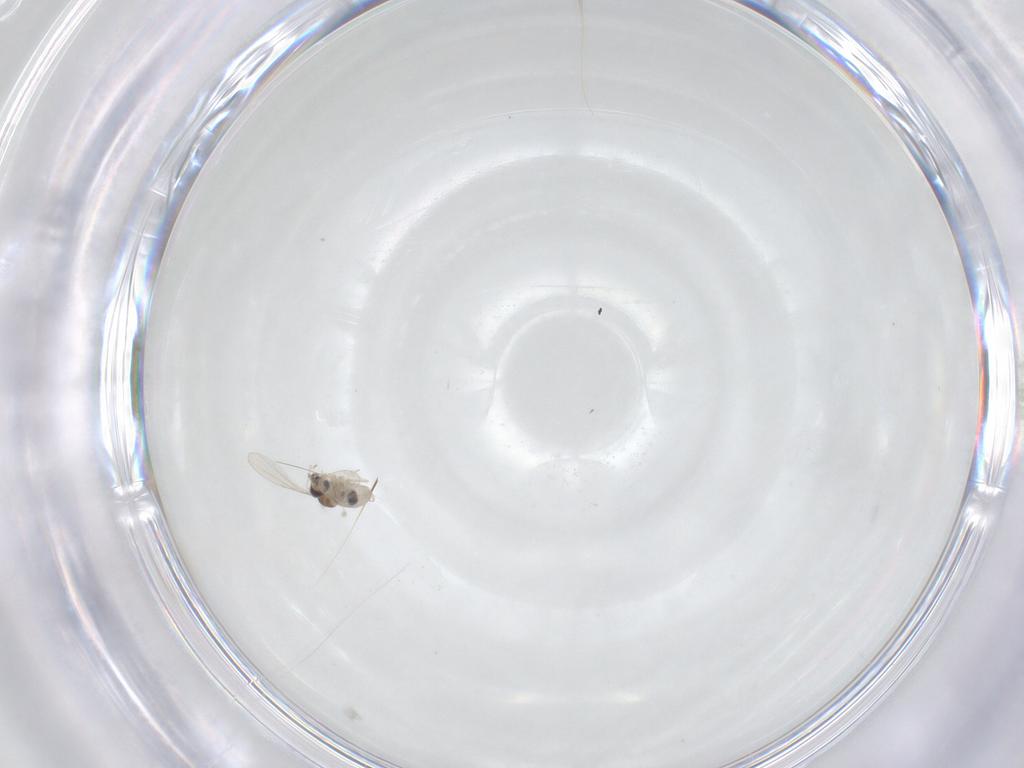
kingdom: Animalia
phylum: Arthropoda
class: Insecta
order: Diptera
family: Cecidomyiidae
